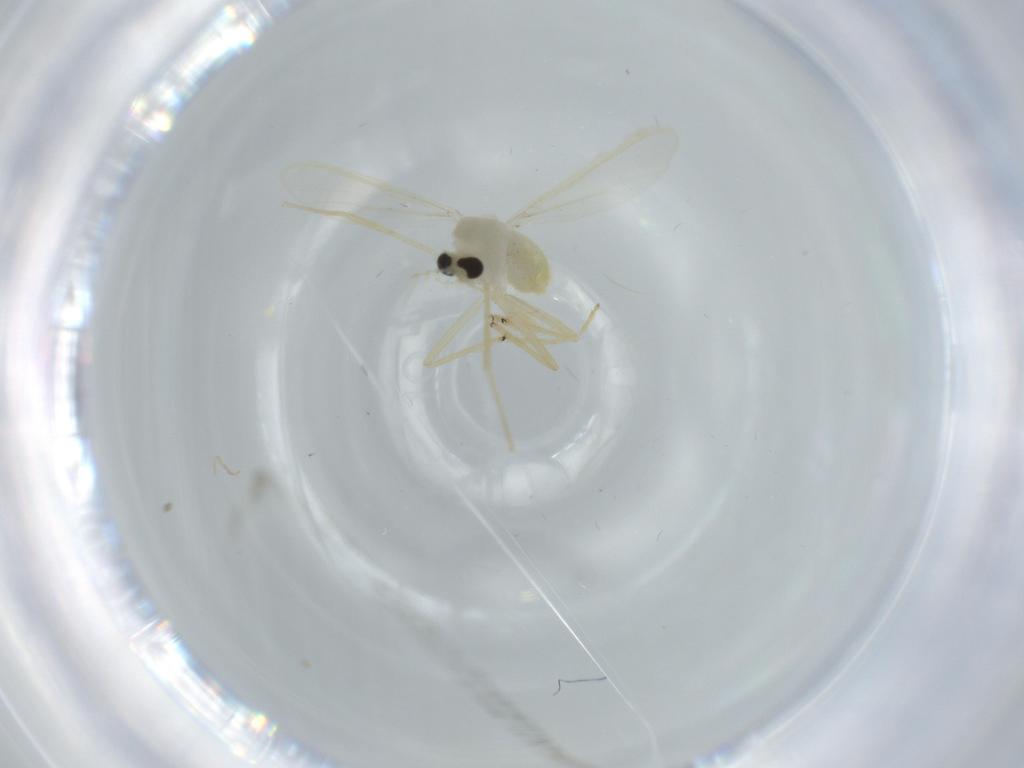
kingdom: Animalia
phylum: Arthropoda
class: Insecta
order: Diptera
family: Chironomidae
